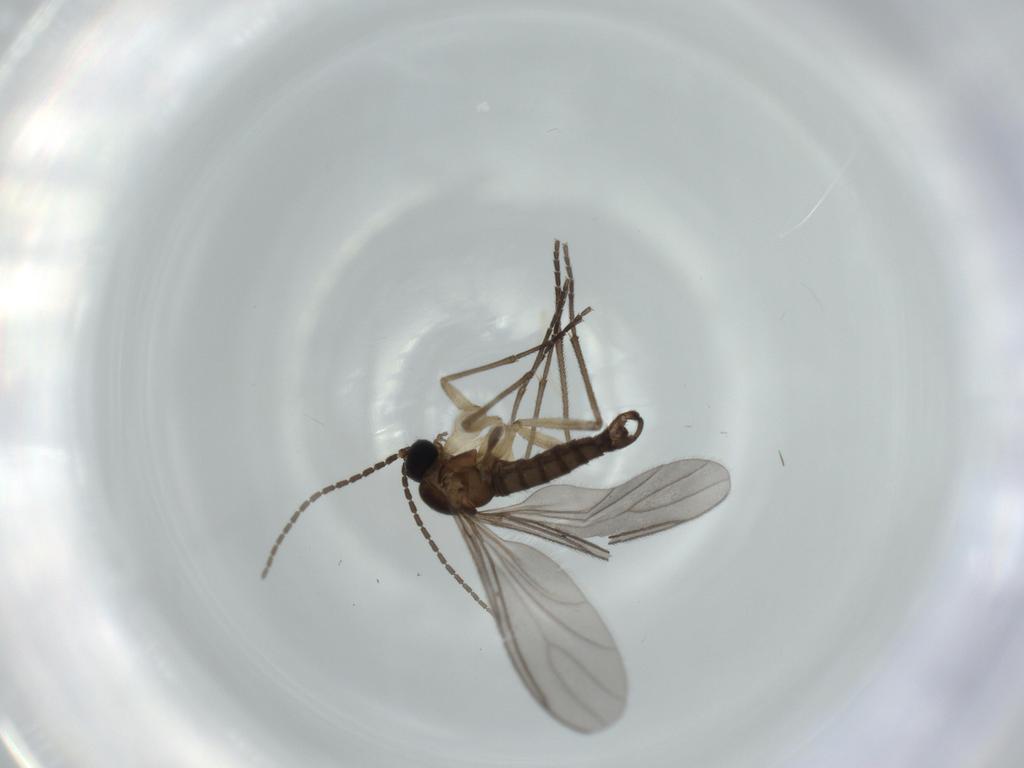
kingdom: Animalia
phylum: Arthropoda
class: Insecta
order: Diptera
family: Sciaridae
